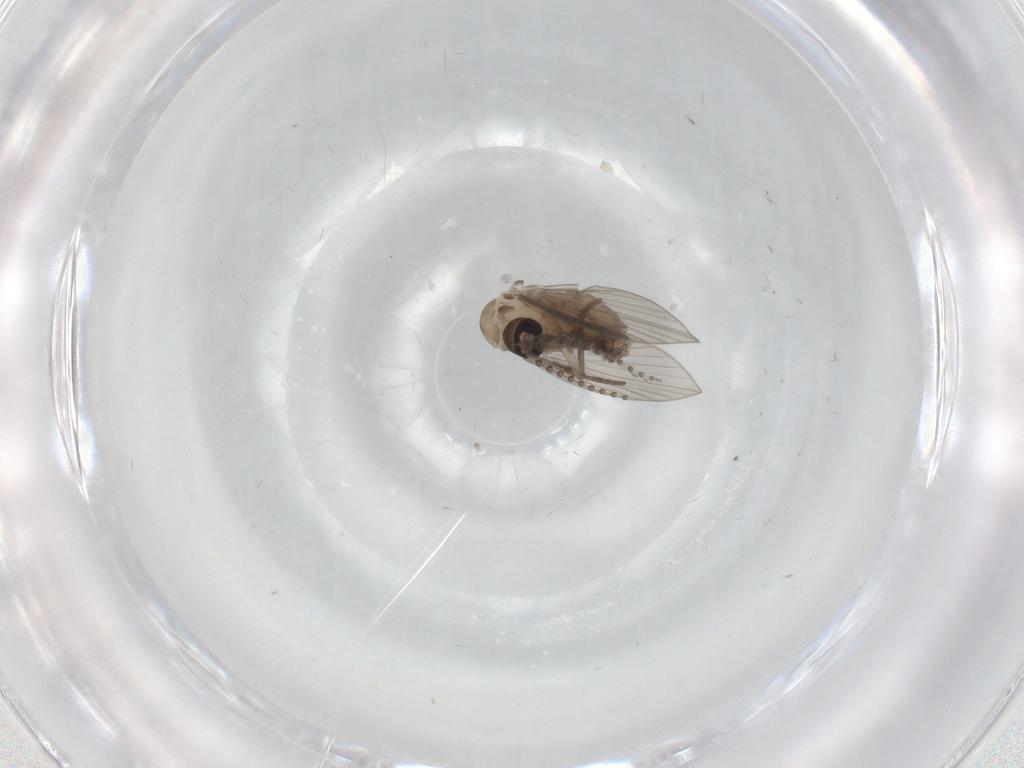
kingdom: Animalia
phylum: Arthropoda
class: Insecta
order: Diptera
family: Psychodidae
